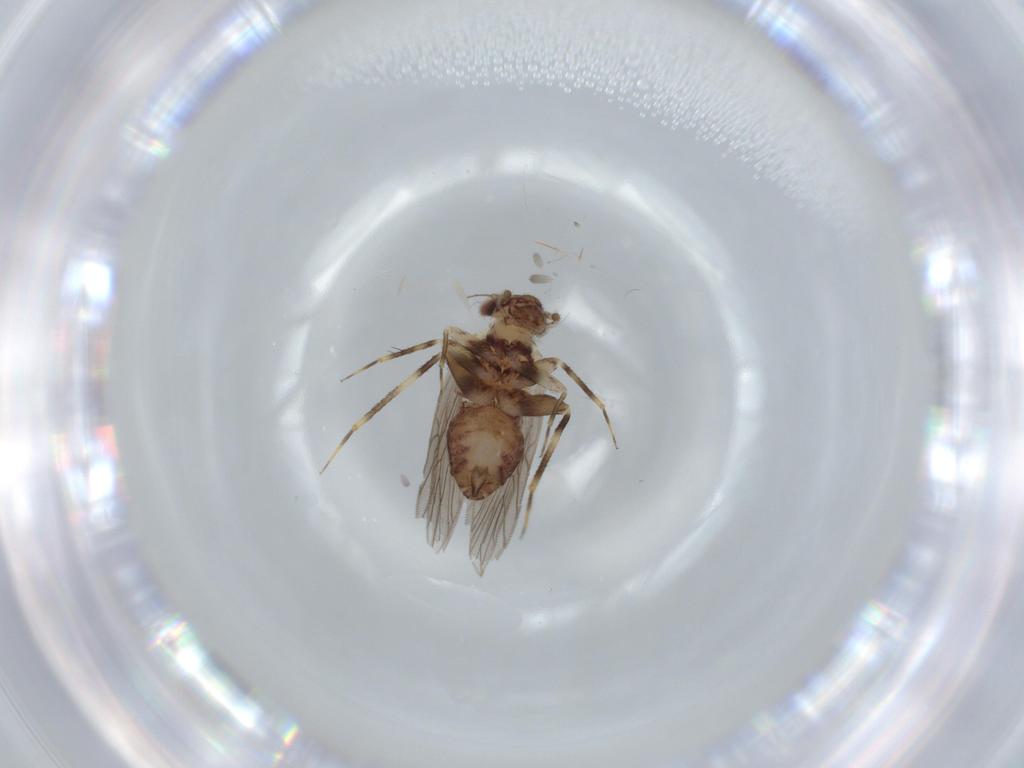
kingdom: Animalia
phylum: Arthropoda
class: Insecta
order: Psocodea
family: Lepidopsocidae
